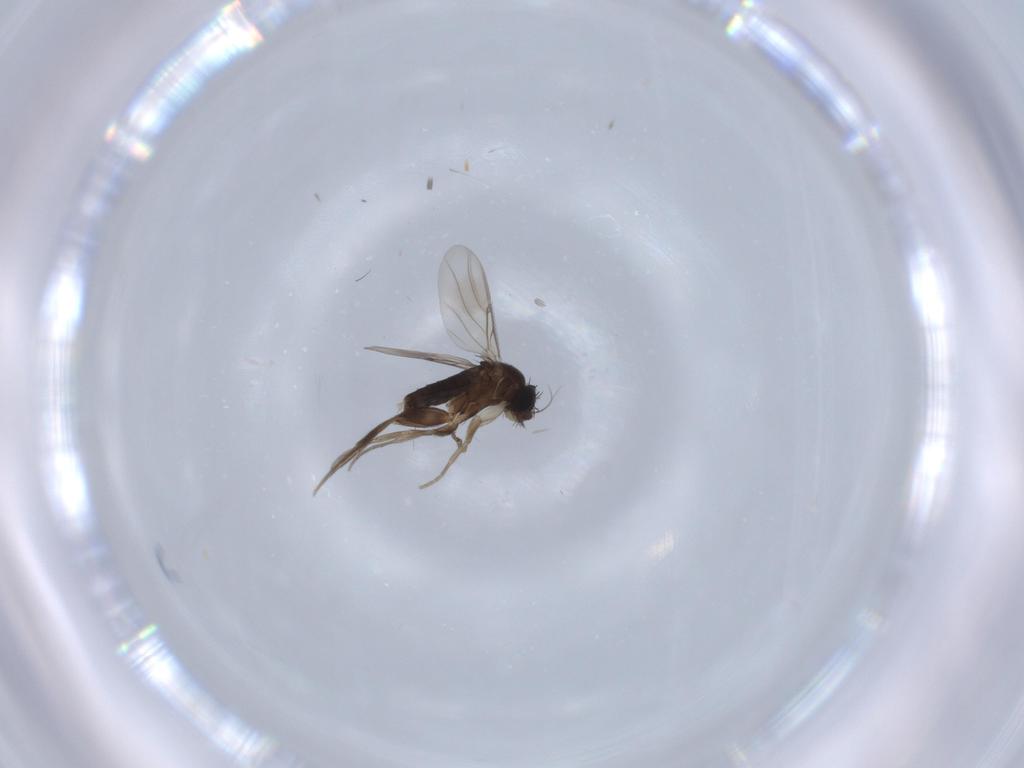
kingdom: Animalia
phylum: Arthropoda
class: Insecta
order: Diptera
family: Phoridae
